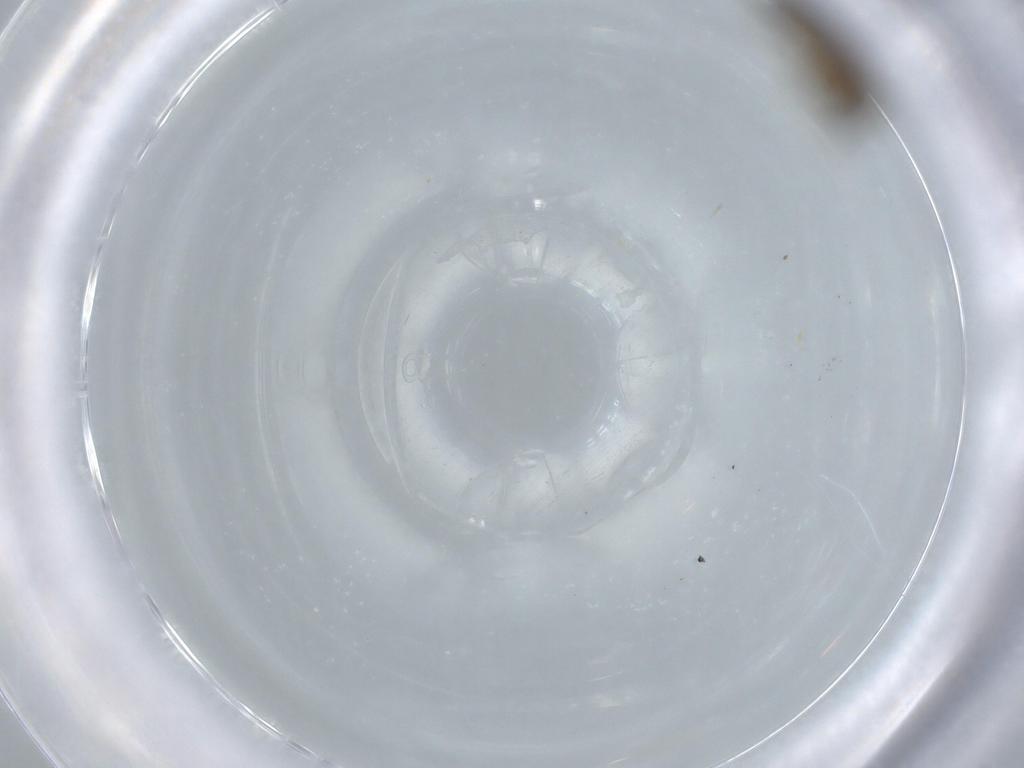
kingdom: Animalia
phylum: Arthropoda
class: Insecta
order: Diptera
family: Chironomidae
